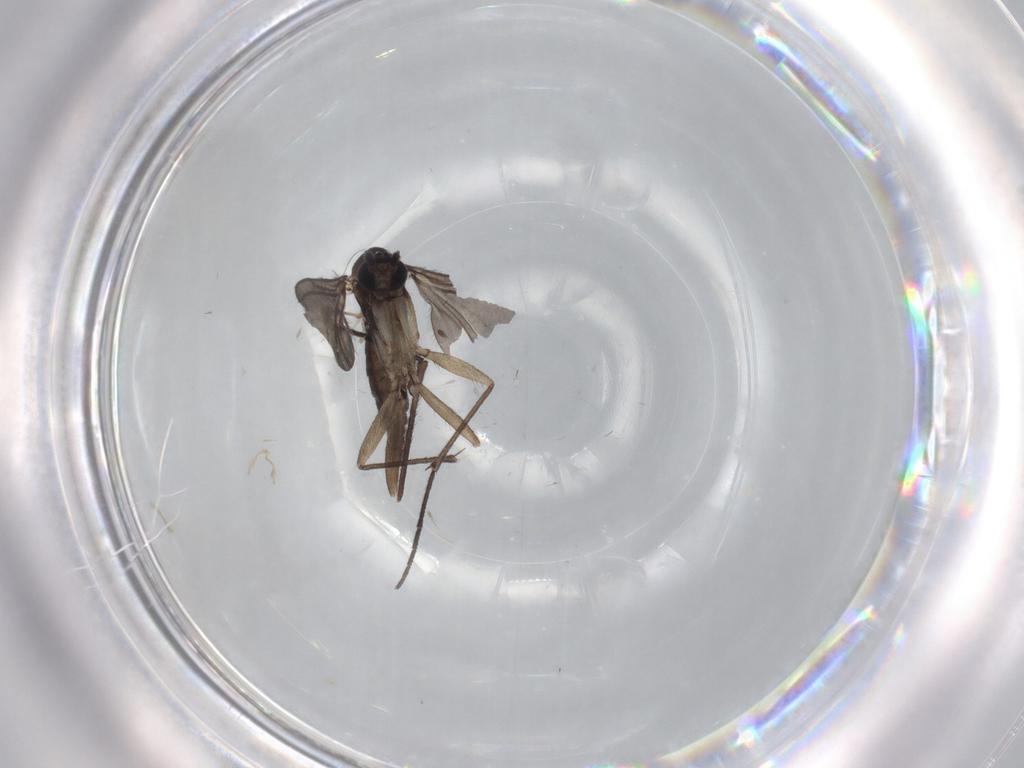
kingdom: Animalia
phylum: Arthropoda
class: Insecta
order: Diptera
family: Sciaridae
